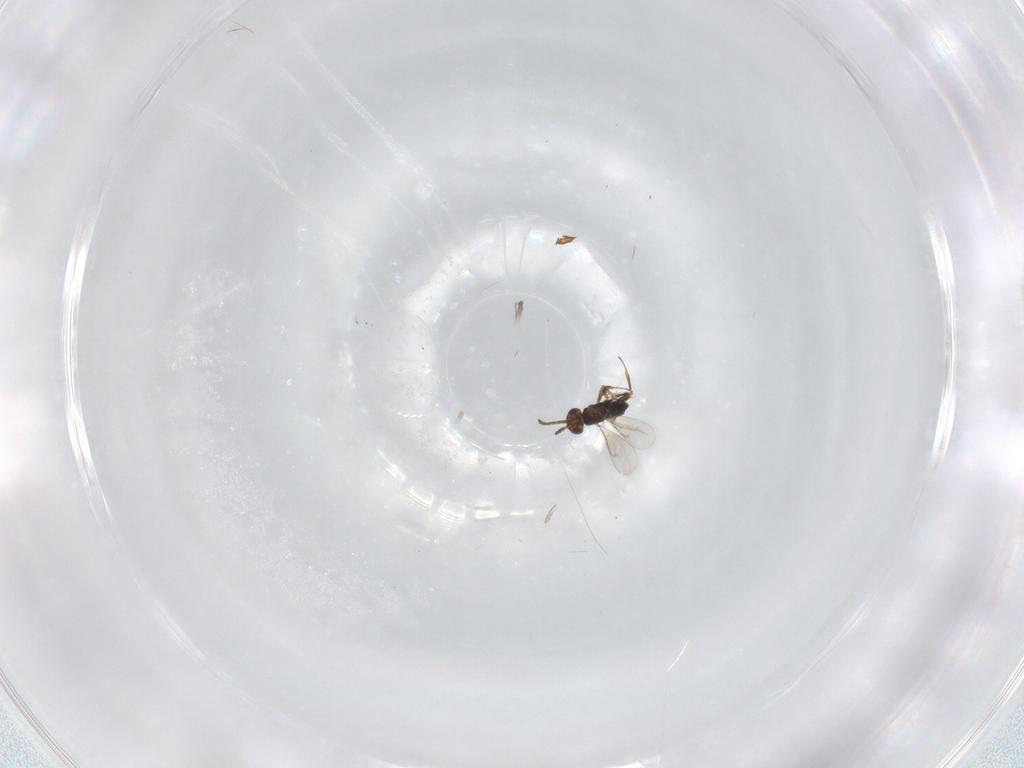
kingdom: Animalia
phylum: Arthropoda
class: Insecta
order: Hymenoptera
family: Formicidae
